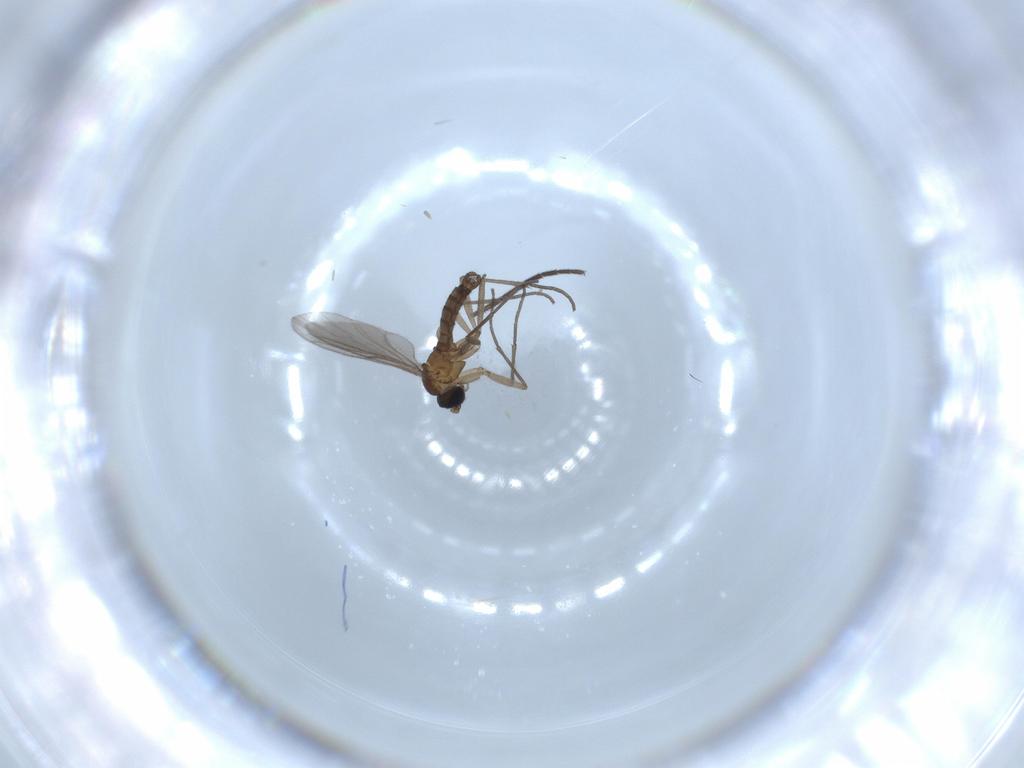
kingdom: Animalia
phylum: Arthropoda
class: Insecta
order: Diptera
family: Sciaridae
